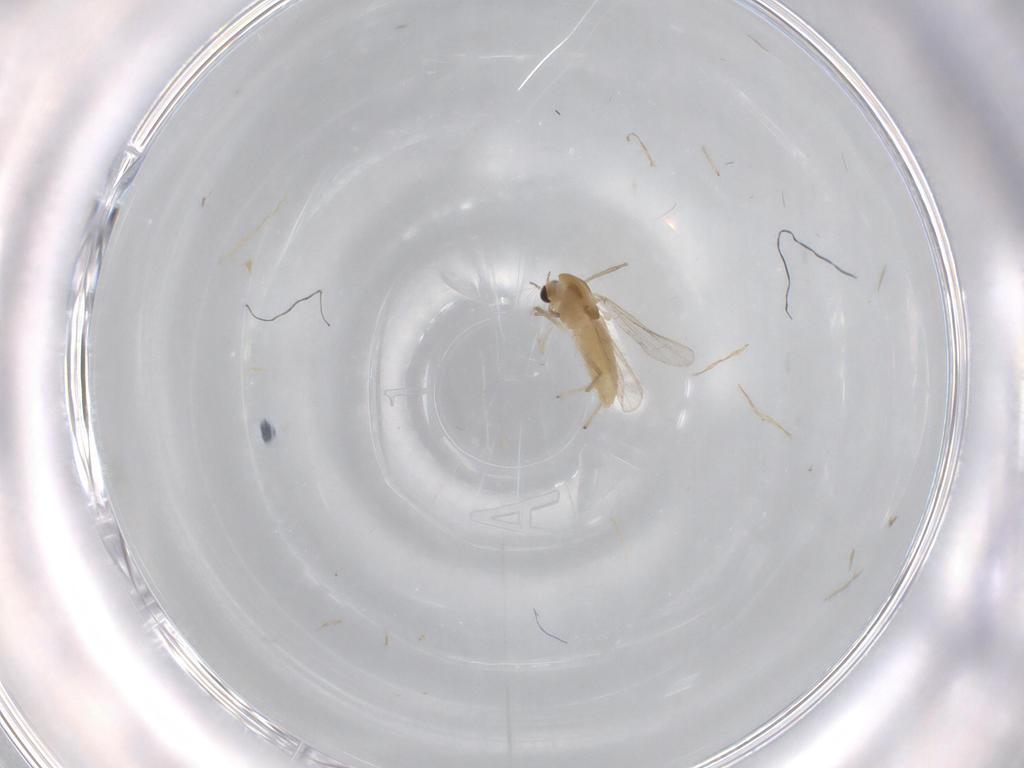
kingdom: Animalia
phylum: Arthropoda
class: Insecta
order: Diptera
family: Chironomidae
